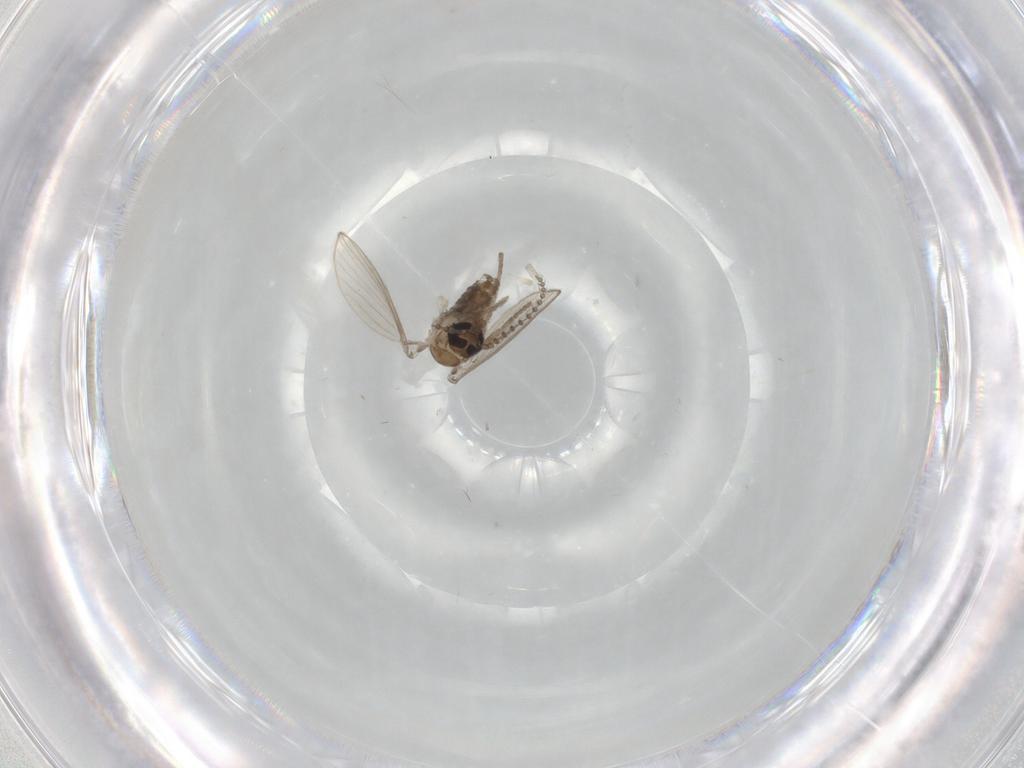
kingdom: Animalia
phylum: Arthropoda
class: Insecta
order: Diptera
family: Psychodidae
